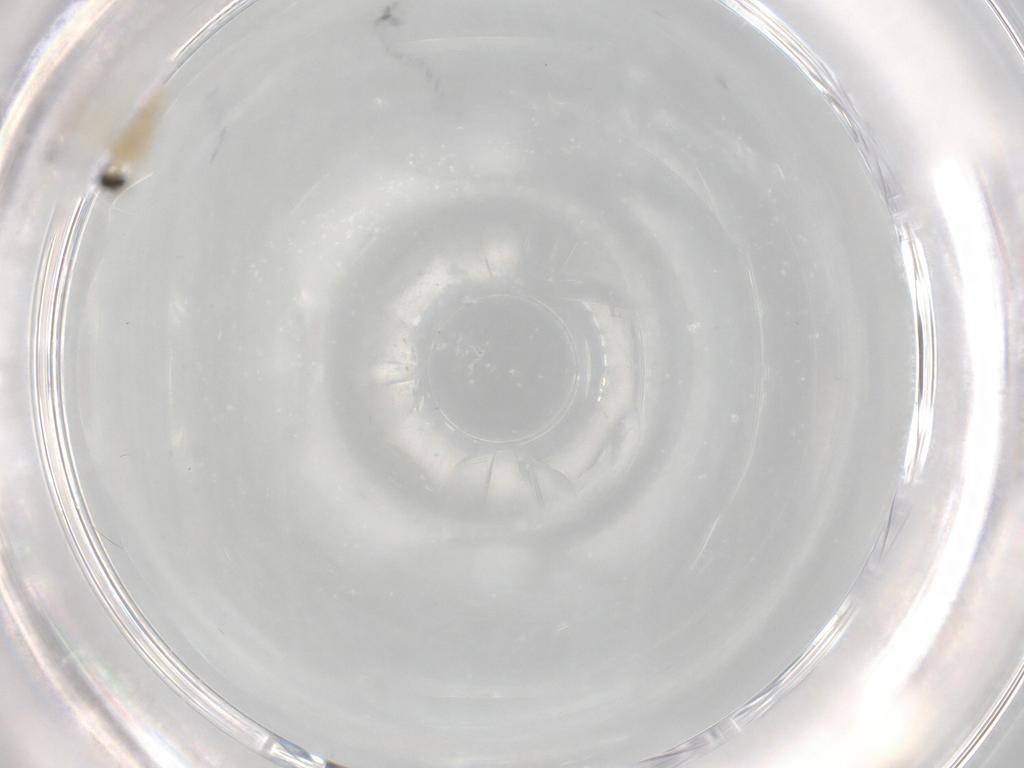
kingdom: Animalia
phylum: Arthropoda
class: Insecta
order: Diptera
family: Cecidomyiidae
